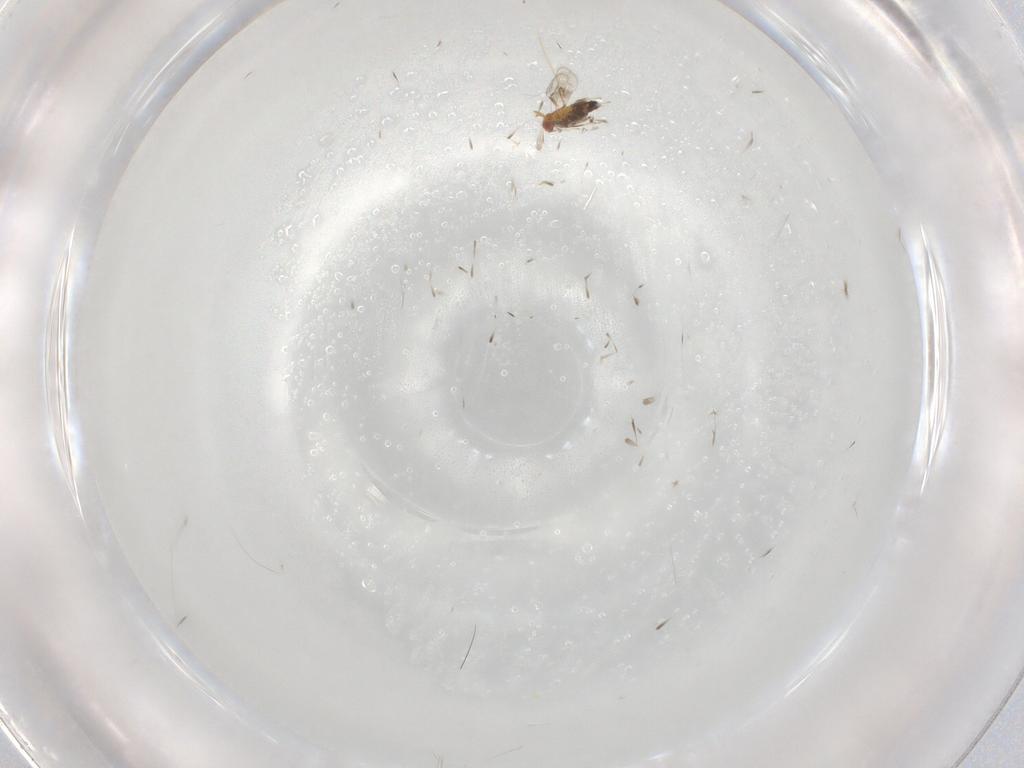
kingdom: Animalia
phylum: Arthropoda
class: Insecta
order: Hymenoptera
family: Trichogrammatidae
